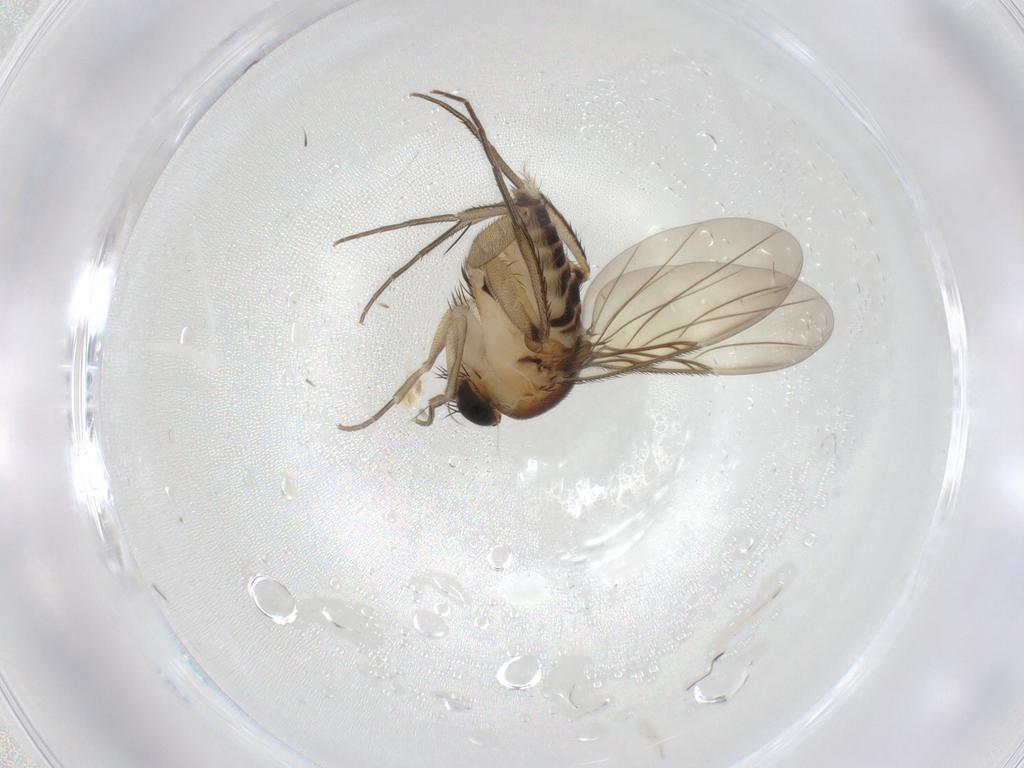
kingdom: Animalia
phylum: Arthropoda
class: Insecta
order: Diptera
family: Phoridae
